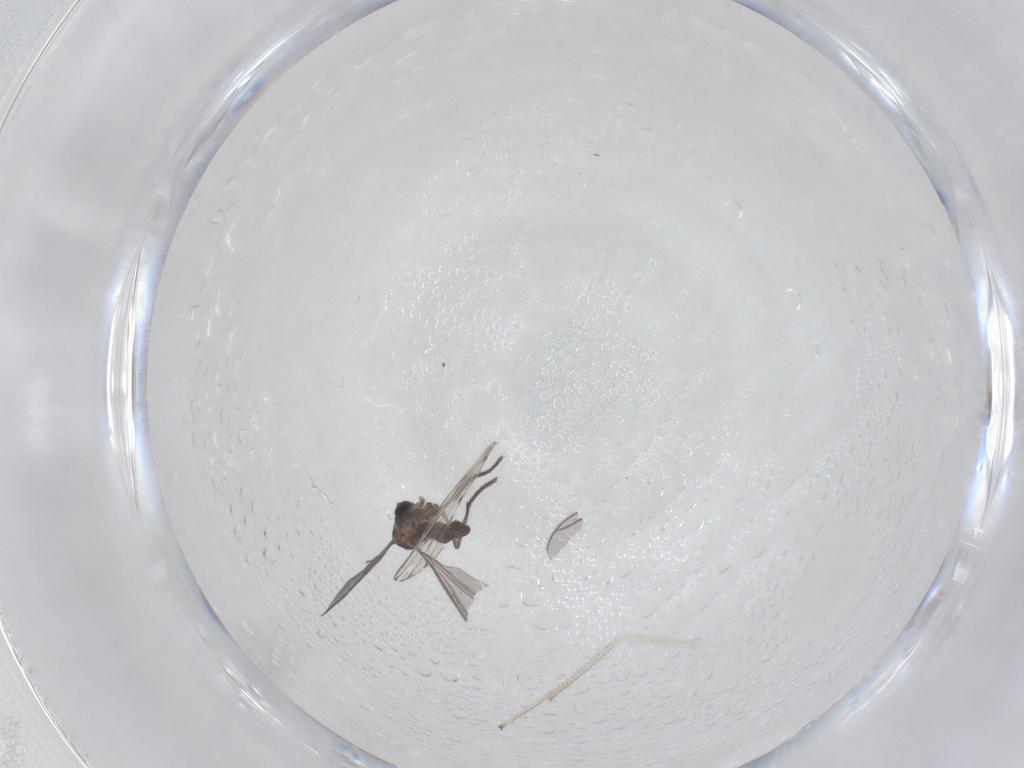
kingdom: Animalia
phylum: Arthropoda
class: Insecta
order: Diptera
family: Sciaridae
